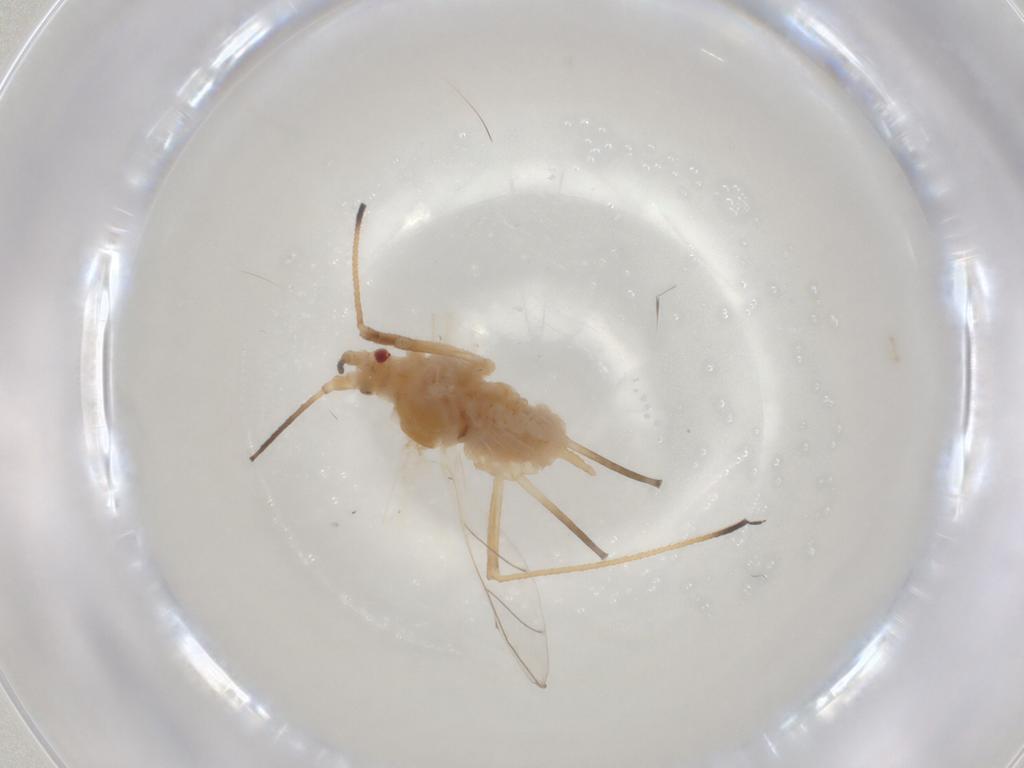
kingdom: Animalia
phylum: Arthropoda
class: Insecta
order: Hemiptera
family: Aphididae
